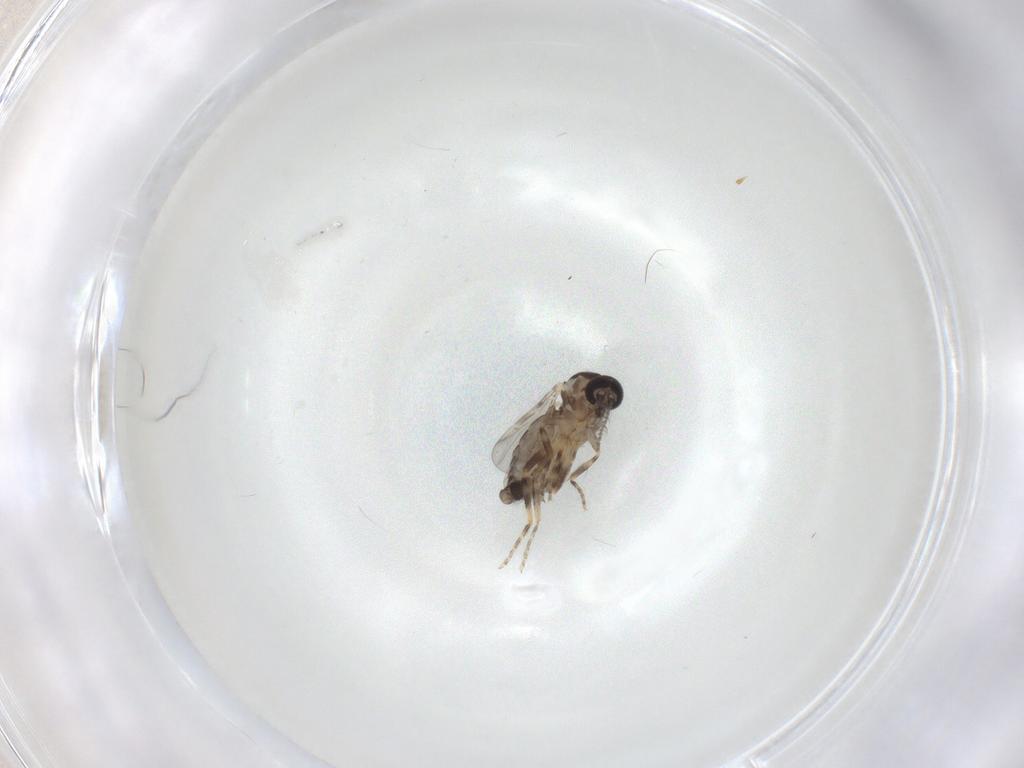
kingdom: Animalia
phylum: Arthropoda
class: Insecta
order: Diptera
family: Ceratopogonidae
